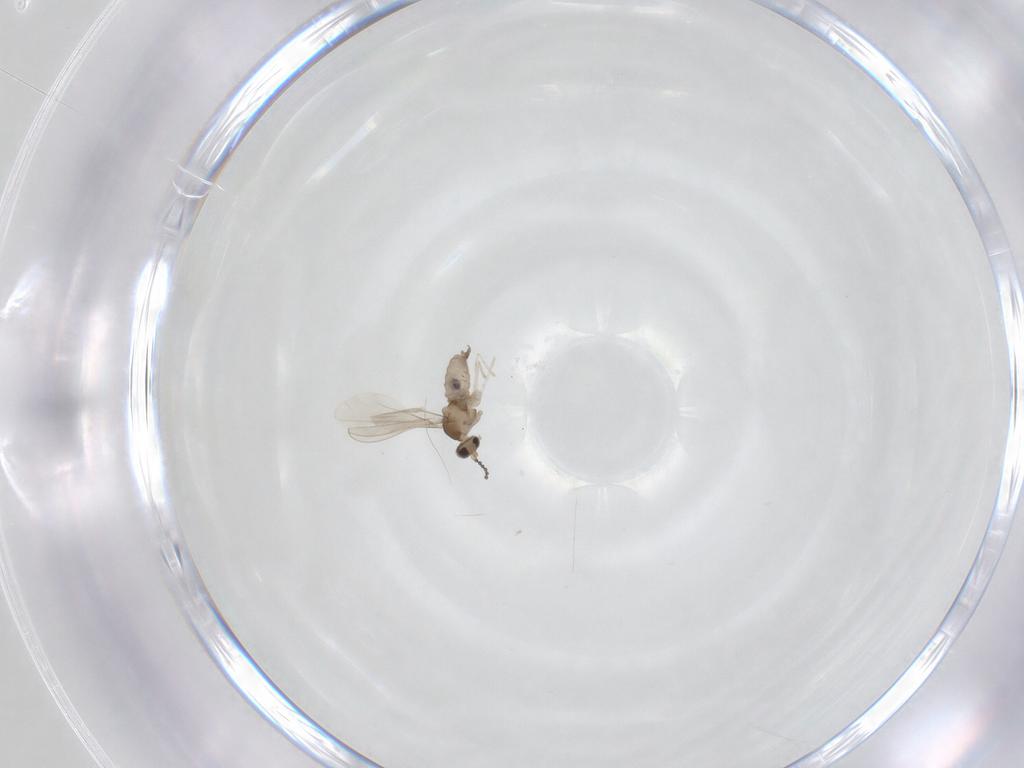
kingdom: Animalia
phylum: Arthropoda
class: Insecta
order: Diptera
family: Cecidomyiidae
